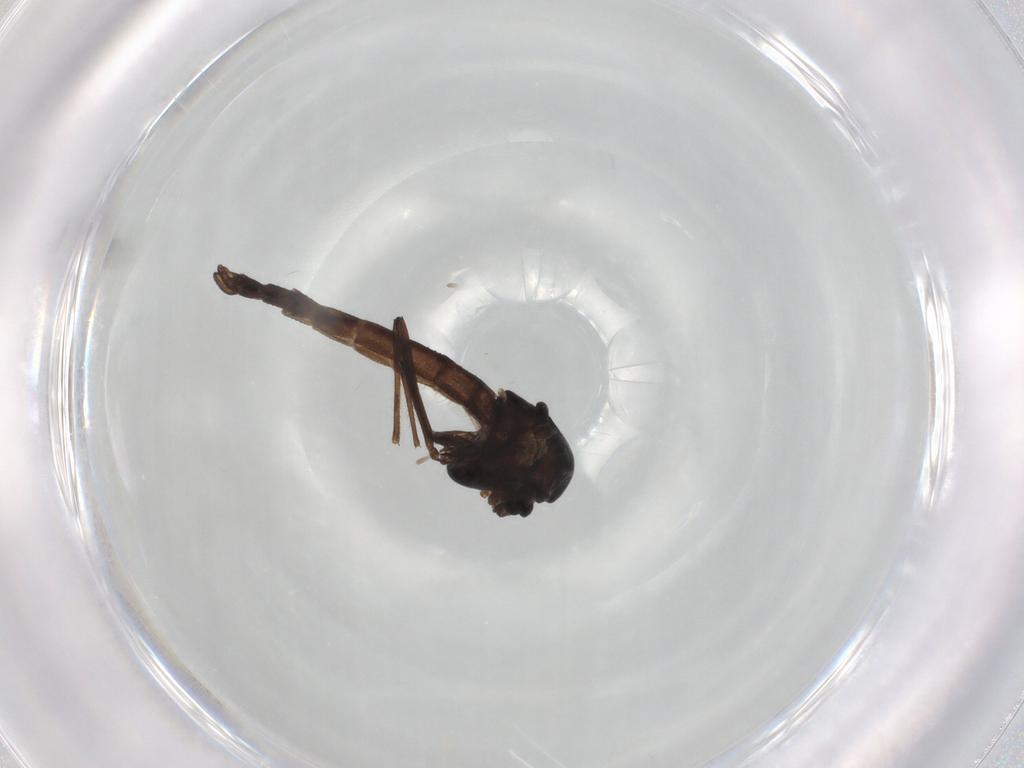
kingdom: Animalia
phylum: Arthropoda
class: Insecta
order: Diptera
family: Chironomidae
